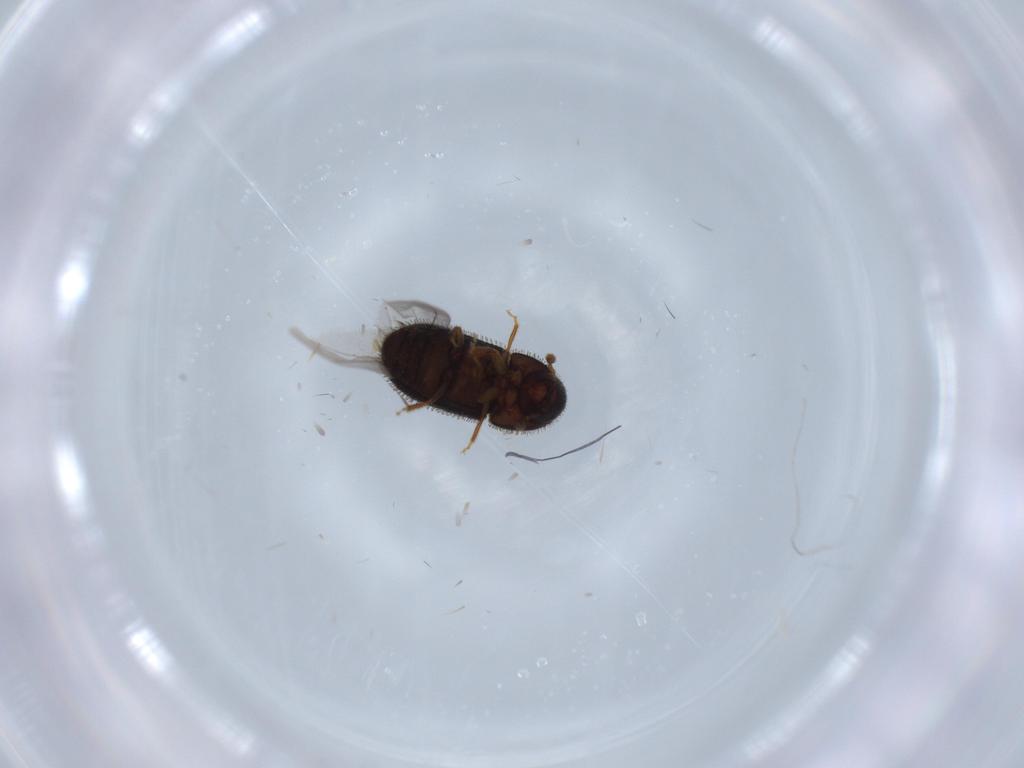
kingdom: Animalia
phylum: Arthropoda
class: Insecta
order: Coleoptera
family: Curculionidae
